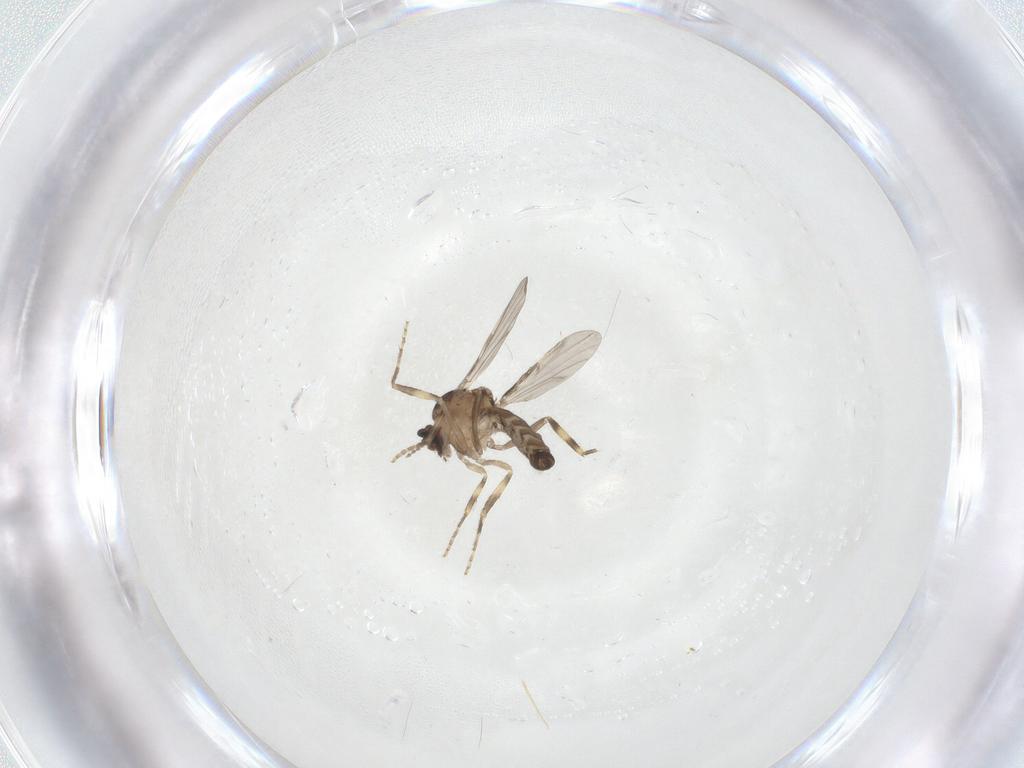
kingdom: Animalia
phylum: Arthropoda
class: Insecta
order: Diptera
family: Ceratopogonidae
